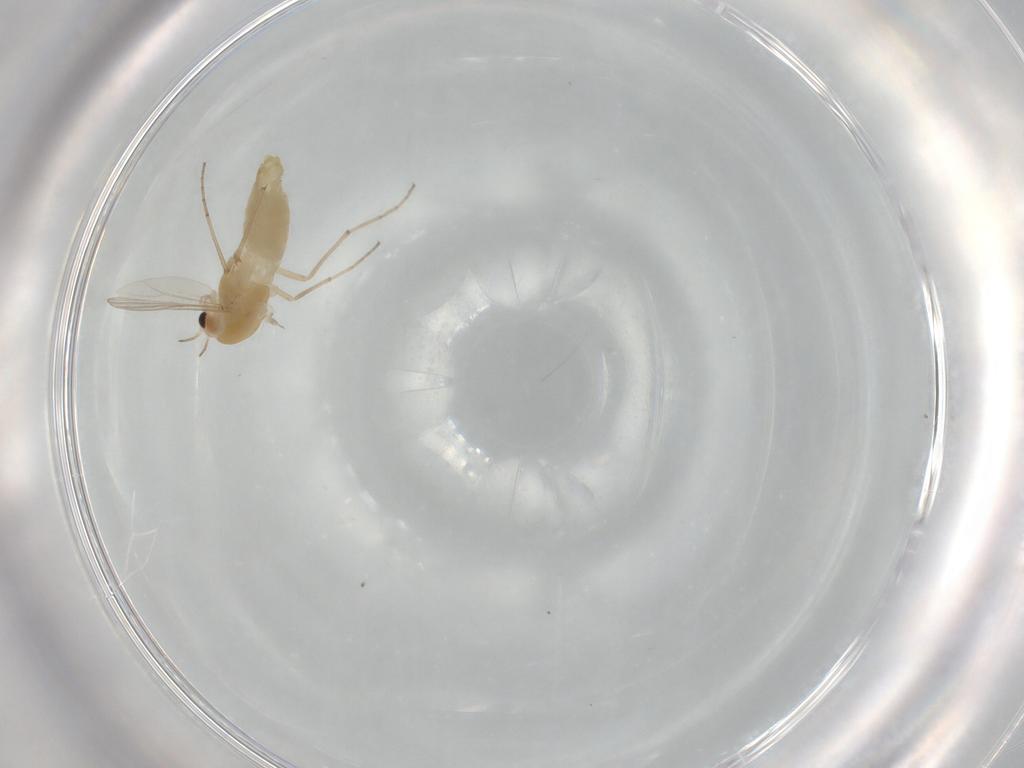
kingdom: Animalia
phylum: Arthropoda
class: Insecta
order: Diptera
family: Chironomidae
